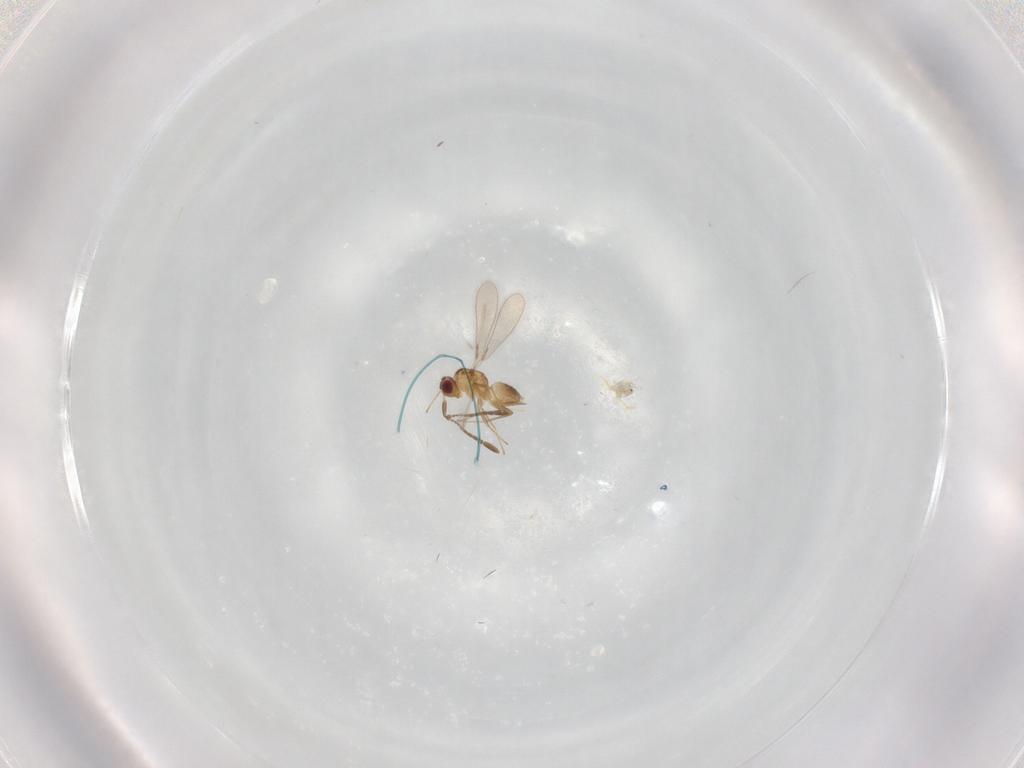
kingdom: Animalia
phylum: Arthropoda
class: Insecta
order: Hymenoptera
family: Mymaridae
